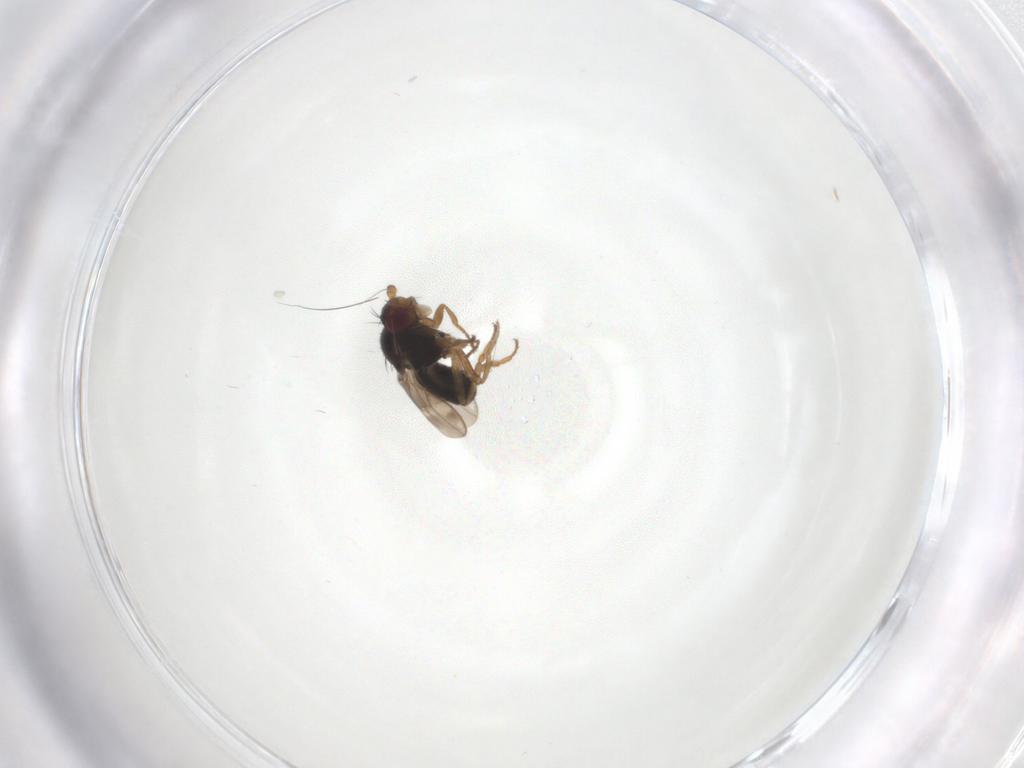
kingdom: Animalia
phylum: Arthropoda
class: Insecta
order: Diptera
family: Sphaeroceridae
